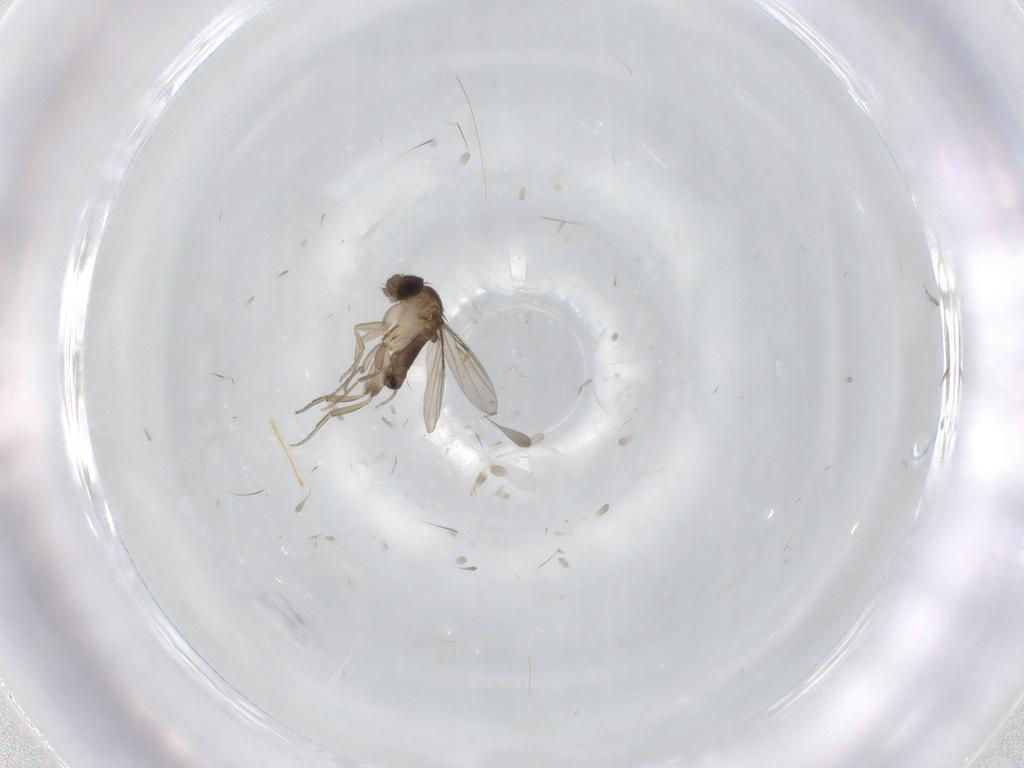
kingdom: Animalia
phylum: Arthropoda
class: Insecta
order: Diptera
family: Phoridae
